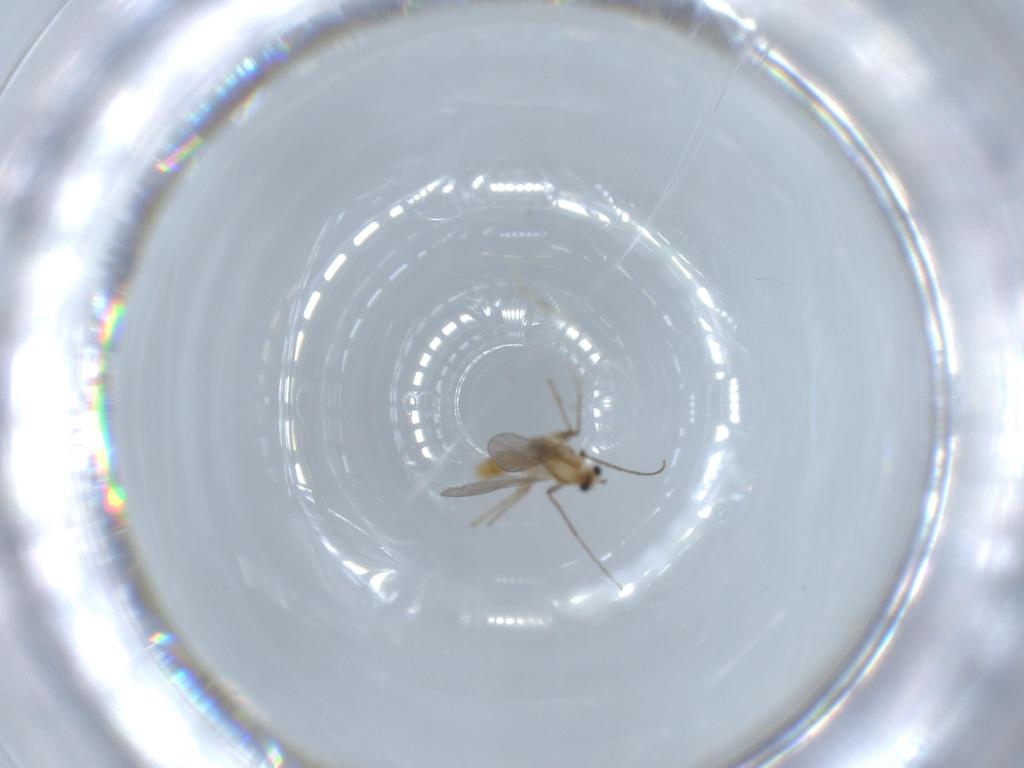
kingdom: Animalia
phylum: Arthropoda
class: Insecta
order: Diptera
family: Chironomidae
